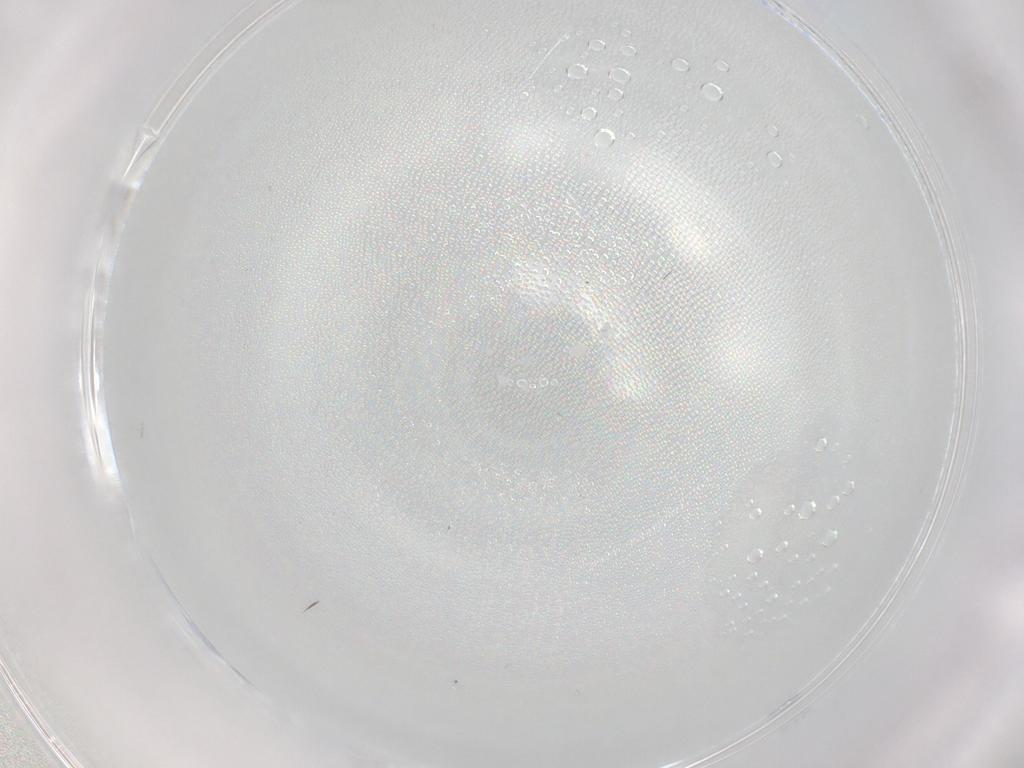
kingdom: Animalia
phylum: Arthropoda
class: Insecta
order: Diptera
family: Cecidomyiidae
